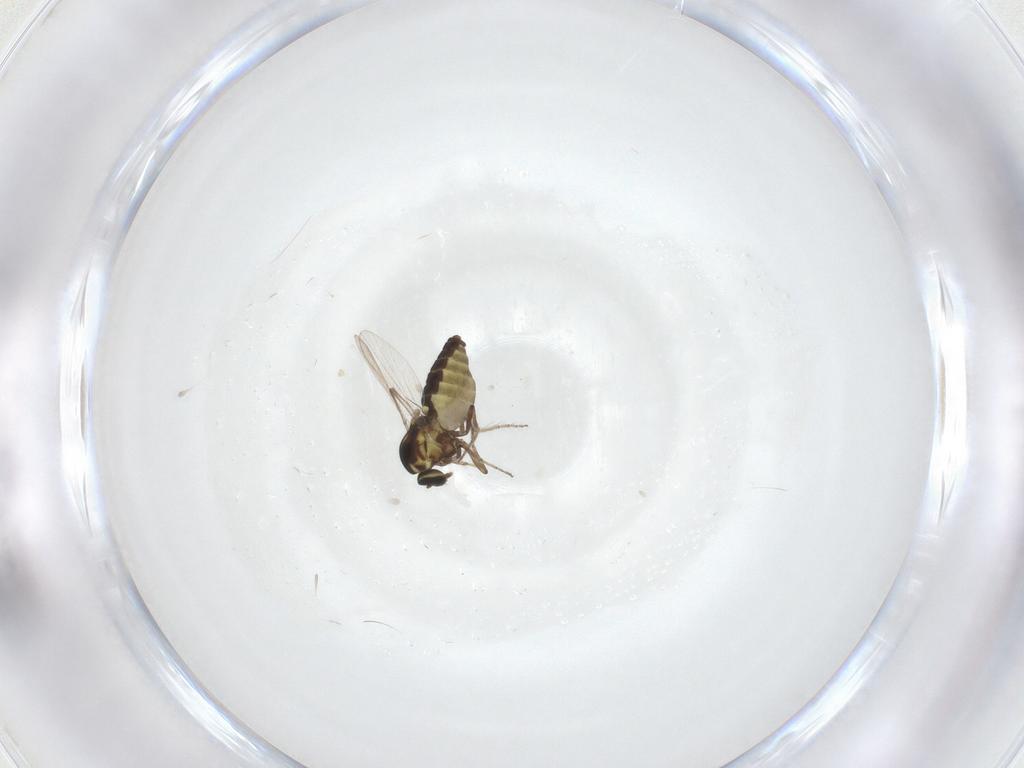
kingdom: Animalia
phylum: Arthropoda
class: Insecta
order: Diptera
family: Ceratopogonidae
